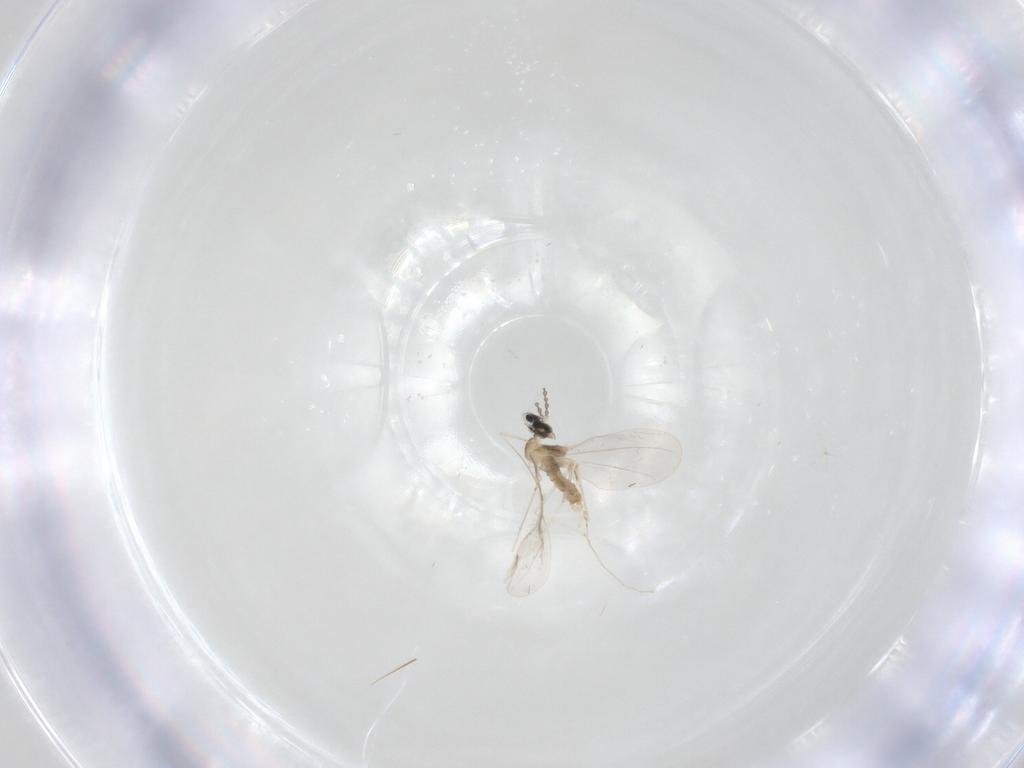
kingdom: Animalia
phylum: Arthropoda
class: Insecta
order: Diptera
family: Cecidomyiidae
